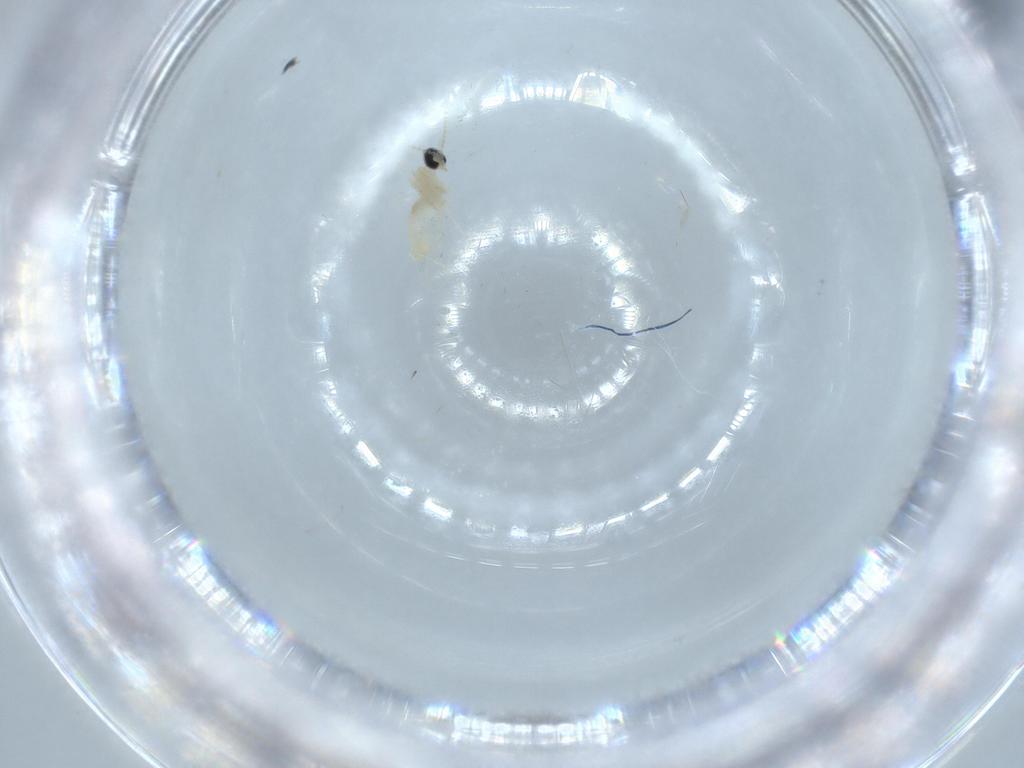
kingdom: Animalia
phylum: Arthropoda
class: Insecta
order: Diptera
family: Cecidomyiidae
